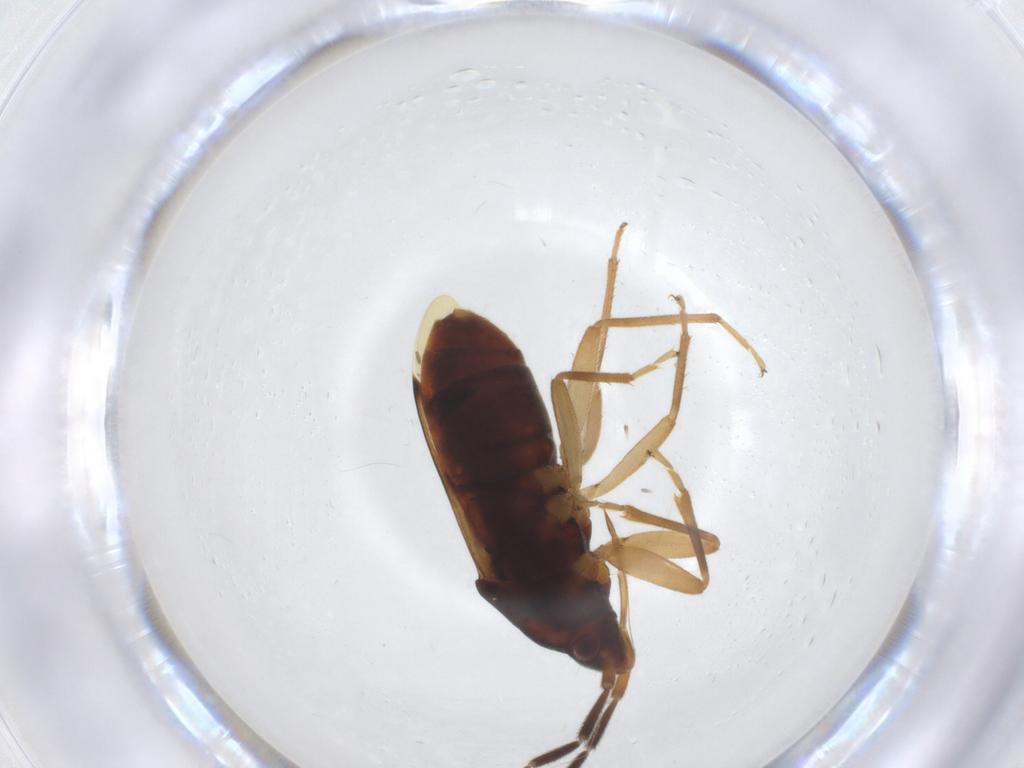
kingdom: Animalia
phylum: Arthropoda
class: Insecta
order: Hemiptera
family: Rhyparochromidae
